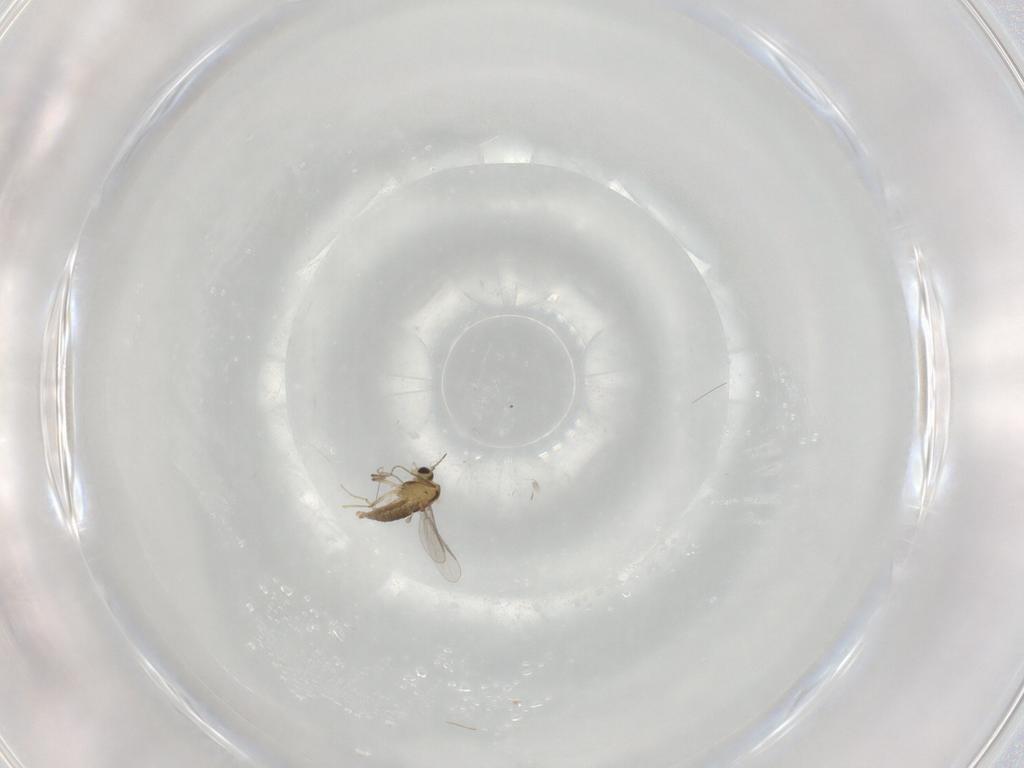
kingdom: Animalia
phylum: Arthropoda
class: Insecta
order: Diptera
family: Chironomidae
